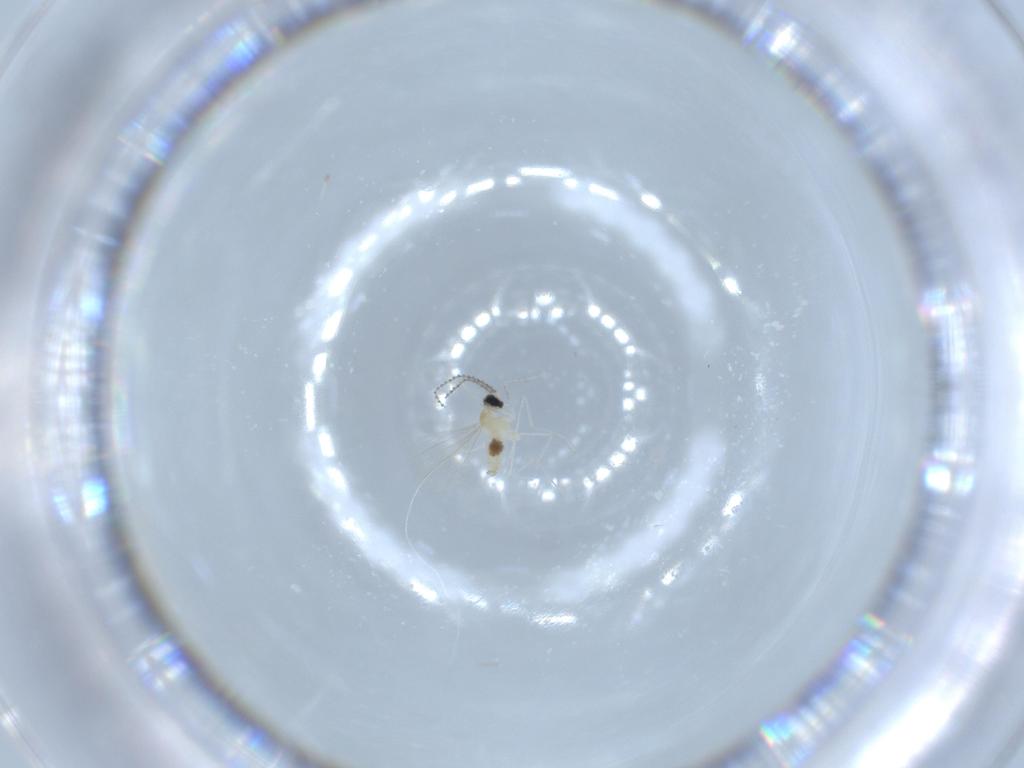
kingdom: Animalia
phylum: Arthropoda
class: Insecta
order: Diptera
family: Cecidomyiidae
